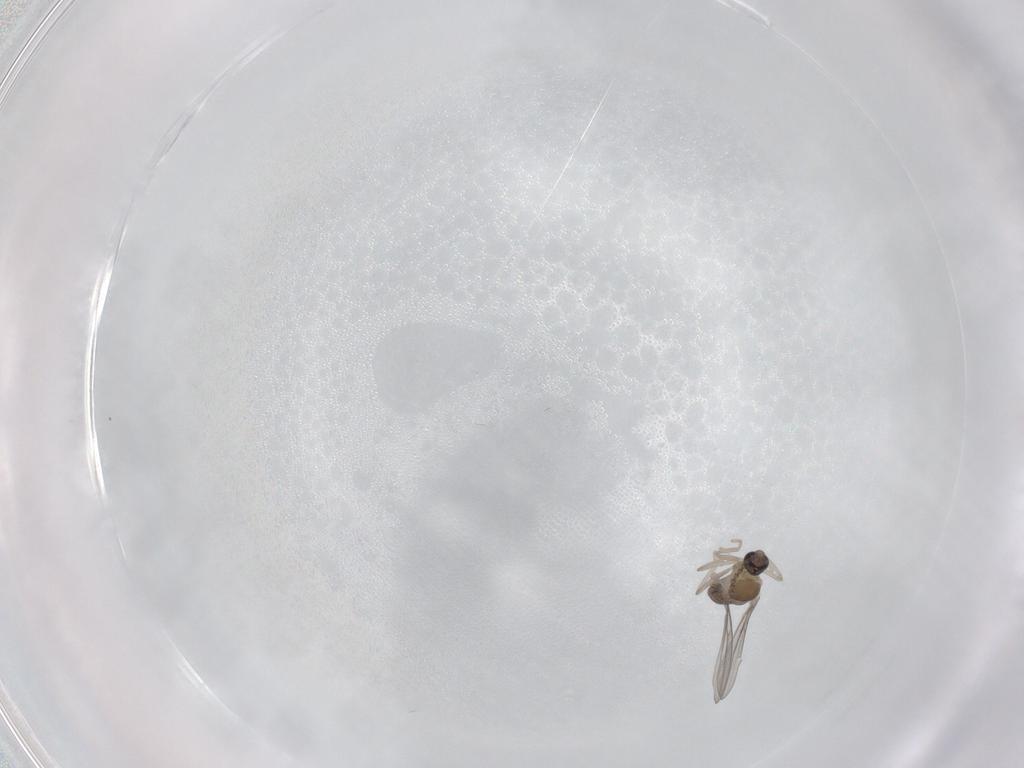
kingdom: Animalia
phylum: Arthropoda
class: Insecta
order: Diptera
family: Cecidomyiidae
